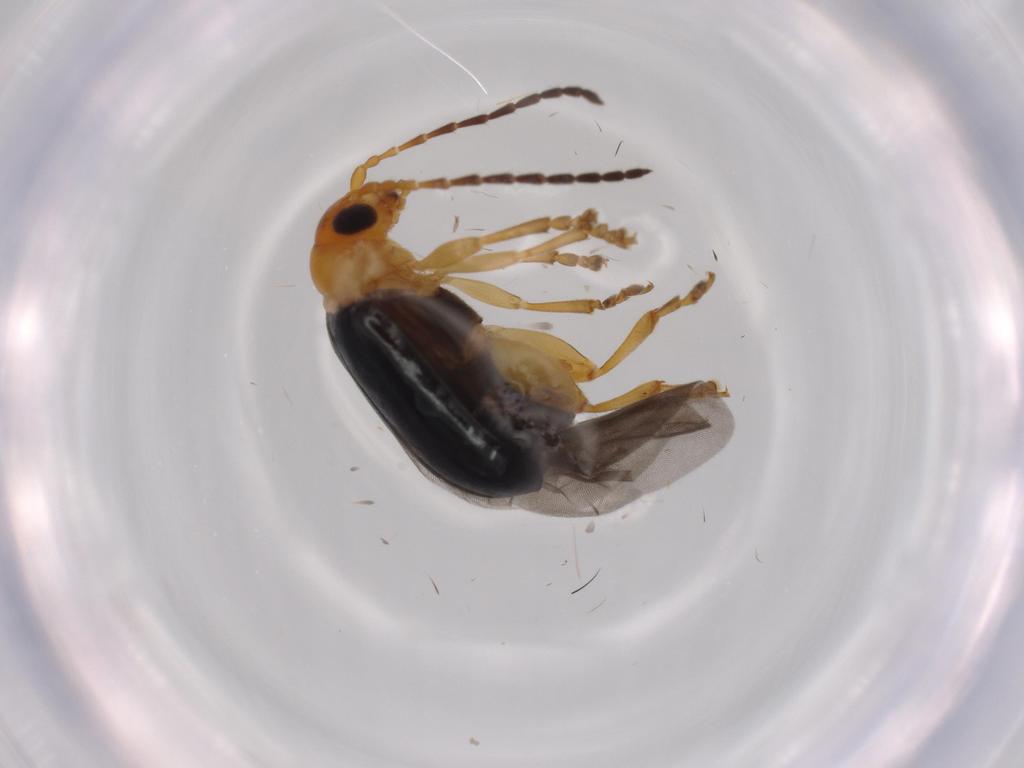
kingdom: Animalia
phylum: Arthropoda
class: Insecta
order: Coleoptera
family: Chrysomelidae
